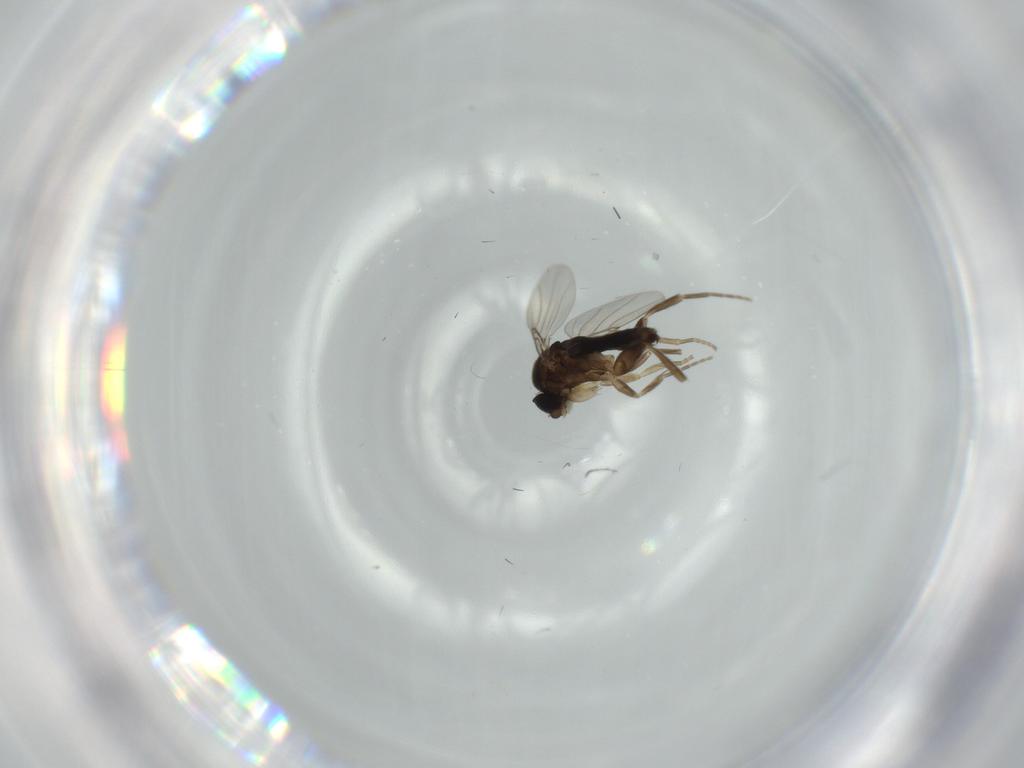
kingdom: Animalia
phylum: Arthropoda
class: Insecta
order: Diptera
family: Phoridae
